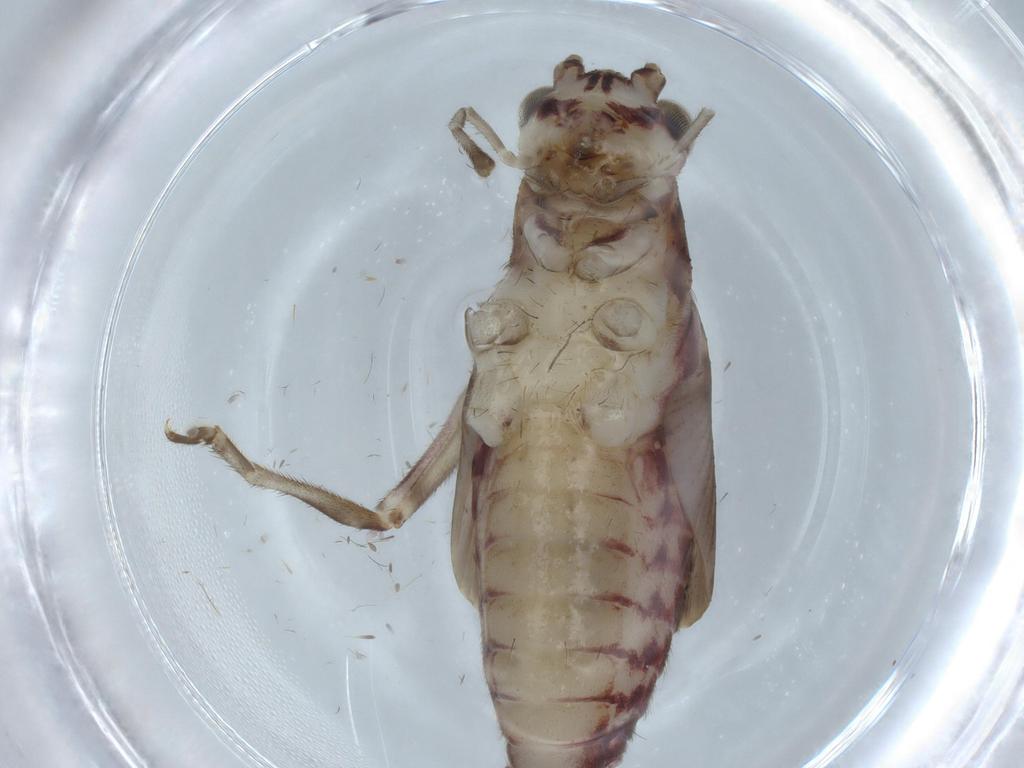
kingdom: Animalia
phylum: Arthropoda
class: Insecta
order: Orthoptera
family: Trigonidiidae
